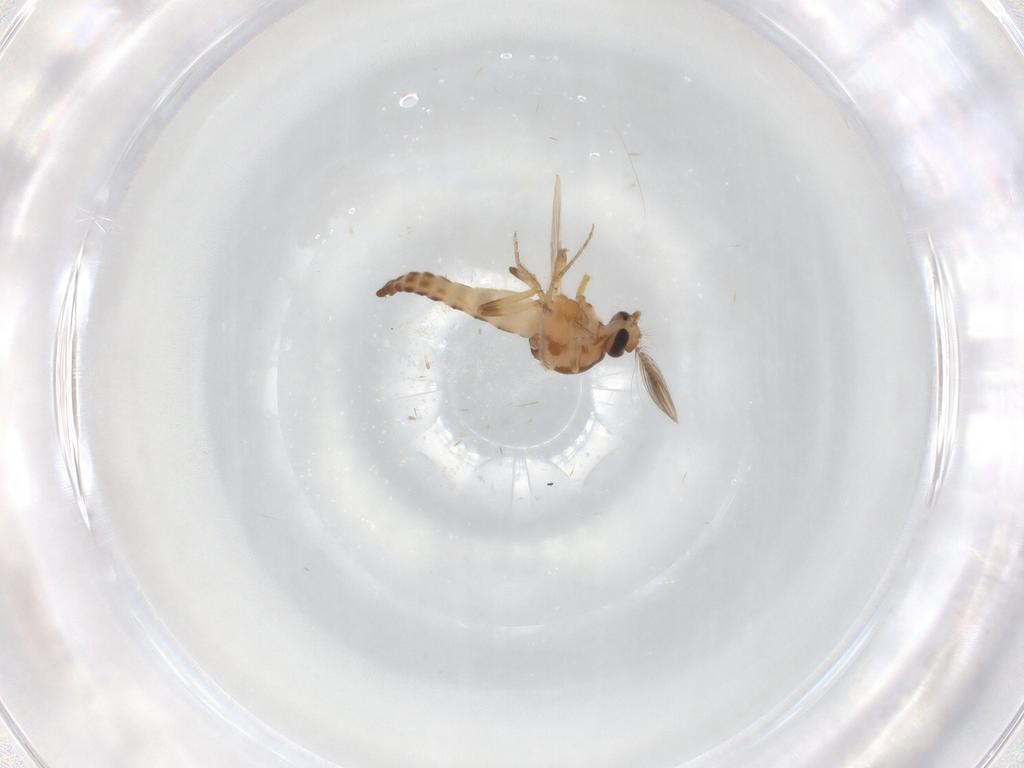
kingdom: Animalia
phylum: Arthropoda
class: Insecta
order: Diptera
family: Ceratopogonidae
